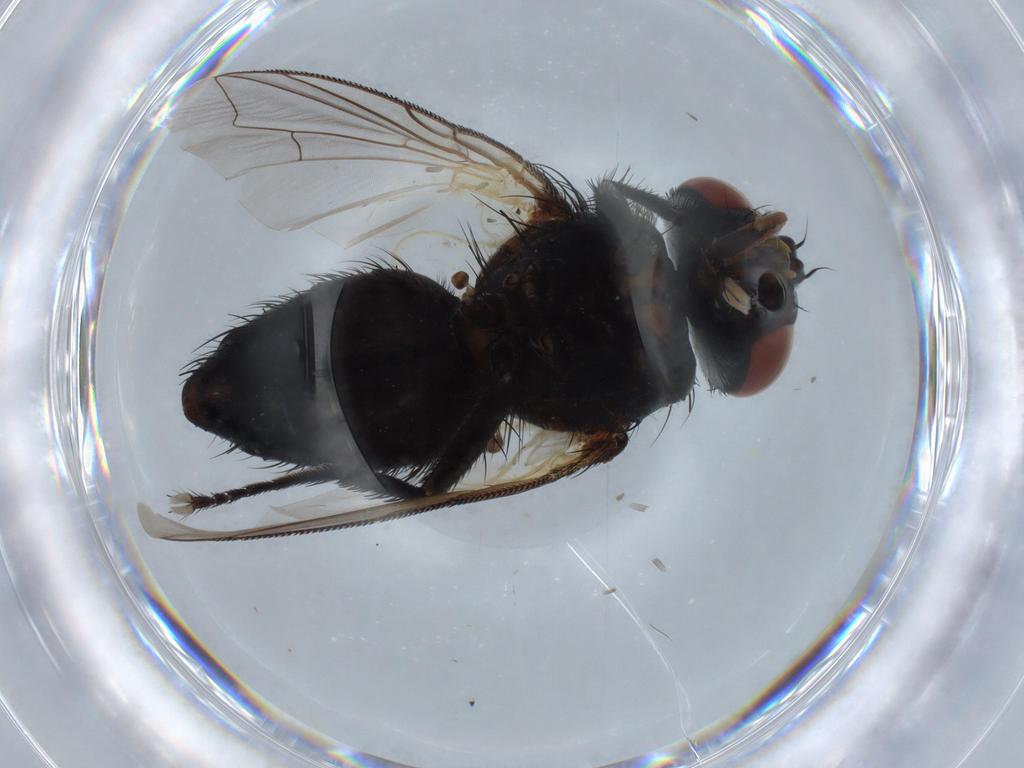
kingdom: Animalia
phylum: Arthropoda
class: Insecta
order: Diptera
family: Tachinidae
